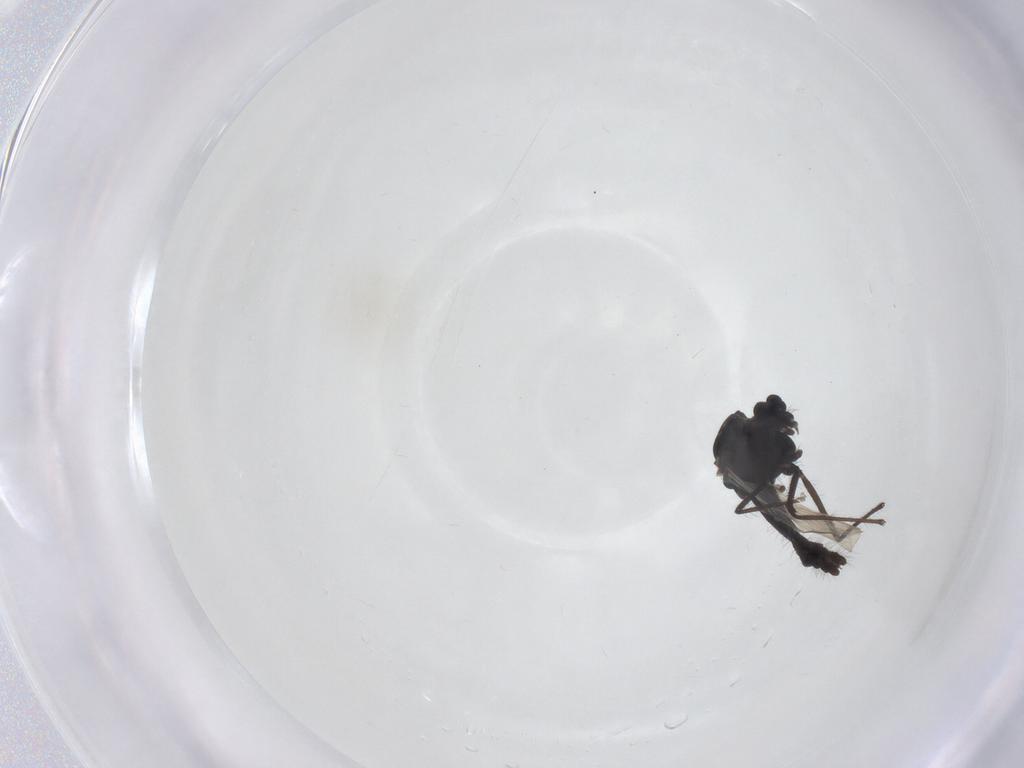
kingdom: Animalia
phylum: Arthropoda
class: Insecta
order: Diptera
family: Chironomidae
